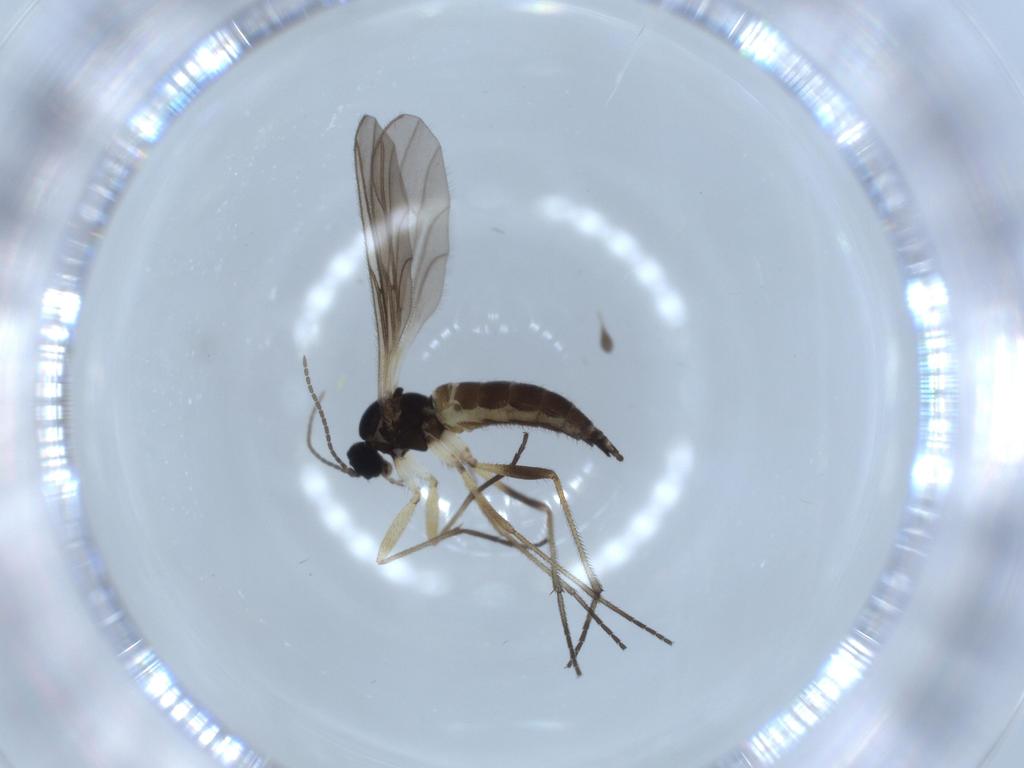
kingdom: Animalia
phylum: Arthropoda
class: Insecta
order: Diptera
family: Sciaridae
